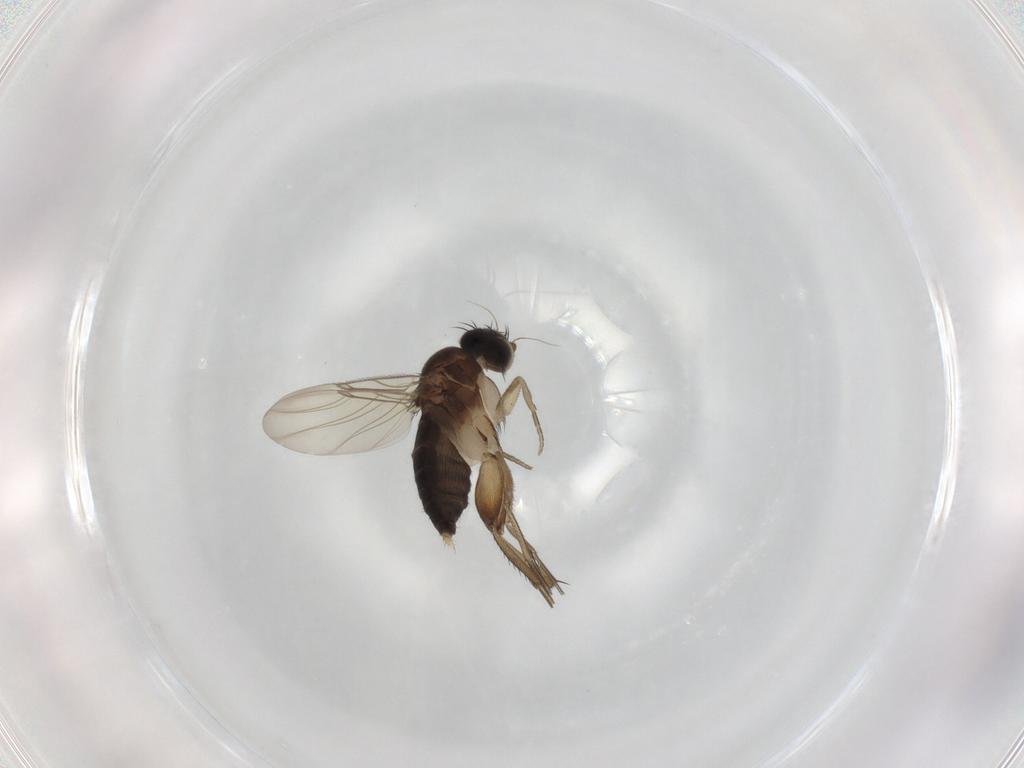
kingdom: Animalia
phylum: Arthropoda
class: Insecta
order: Diptera
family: Phoridae
